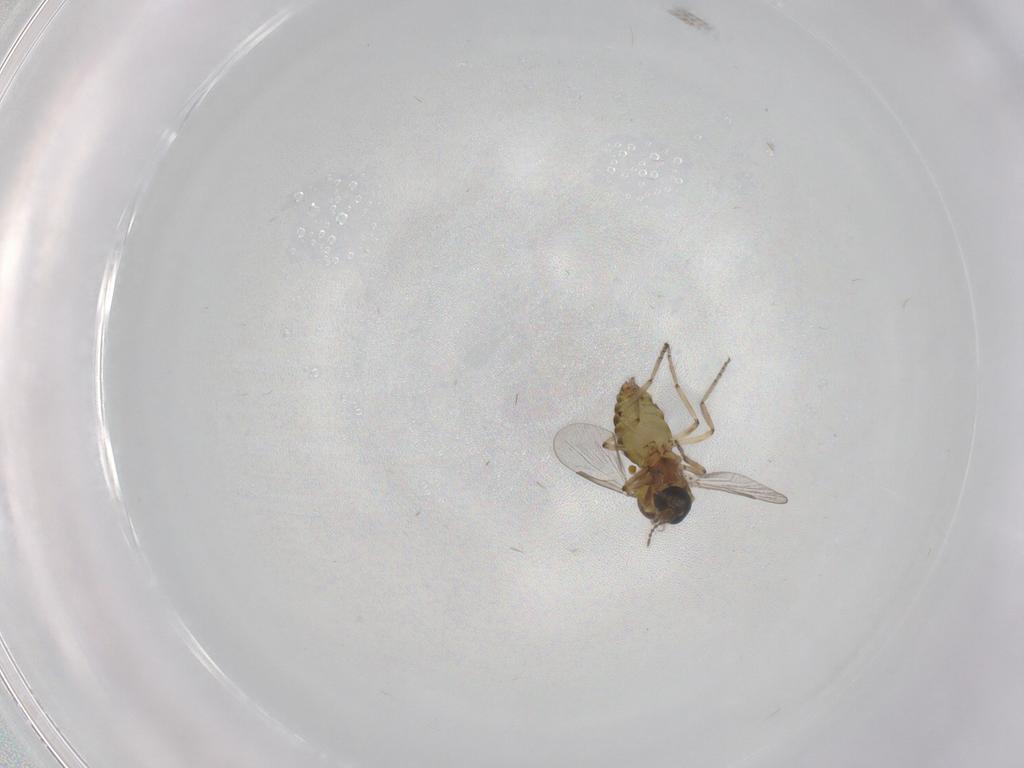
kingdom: Animalia
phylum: Arthropoda
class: Insecta
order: Diptera
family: Ceratopogonidae
